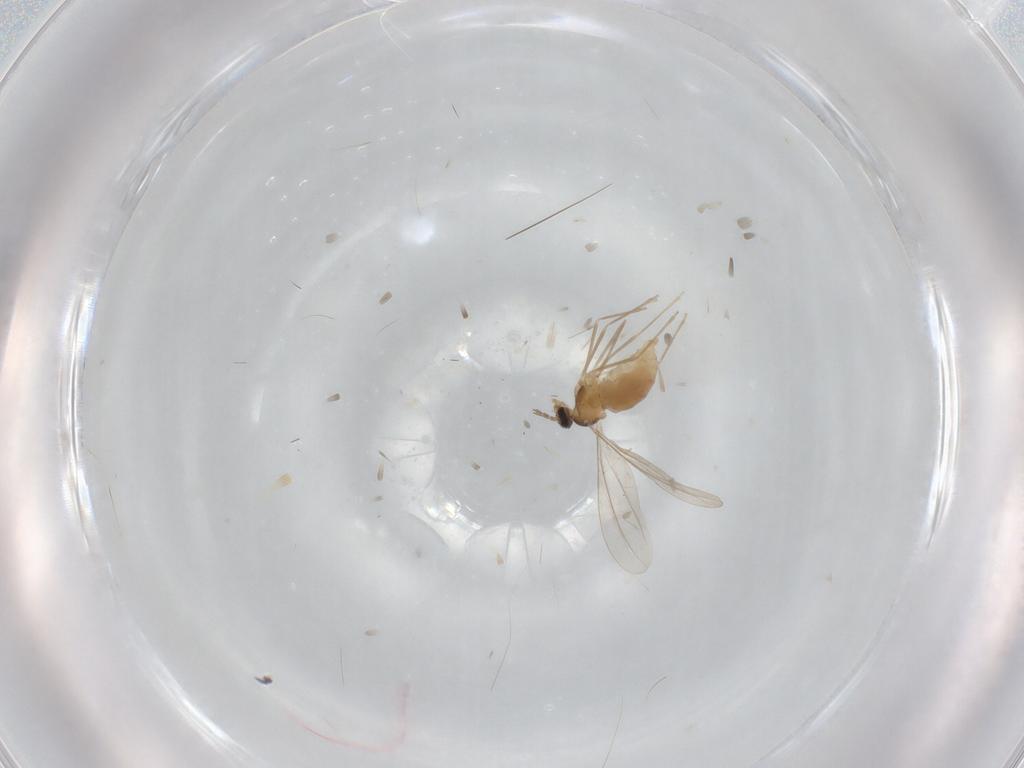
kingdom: Animalia
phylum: Arthropoda
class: Insecta
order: Diptera
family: Cecidomyiidae
